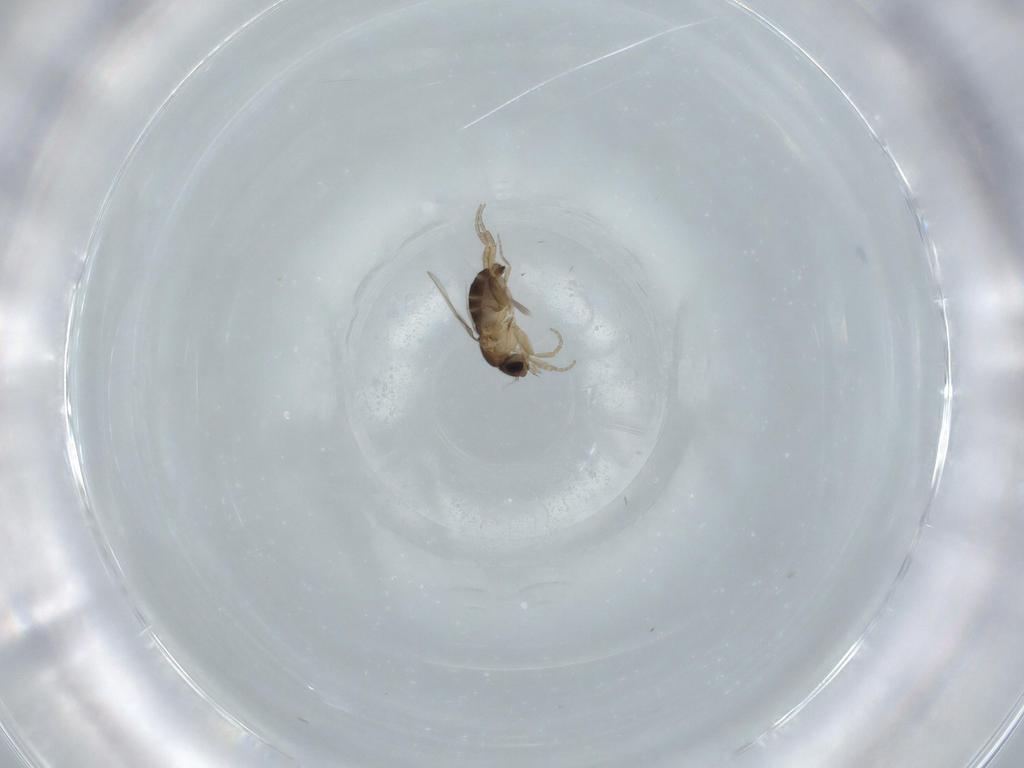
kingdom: Animalia
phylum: Arthropoda
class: Insecta
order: Diptera
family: Phoridae
